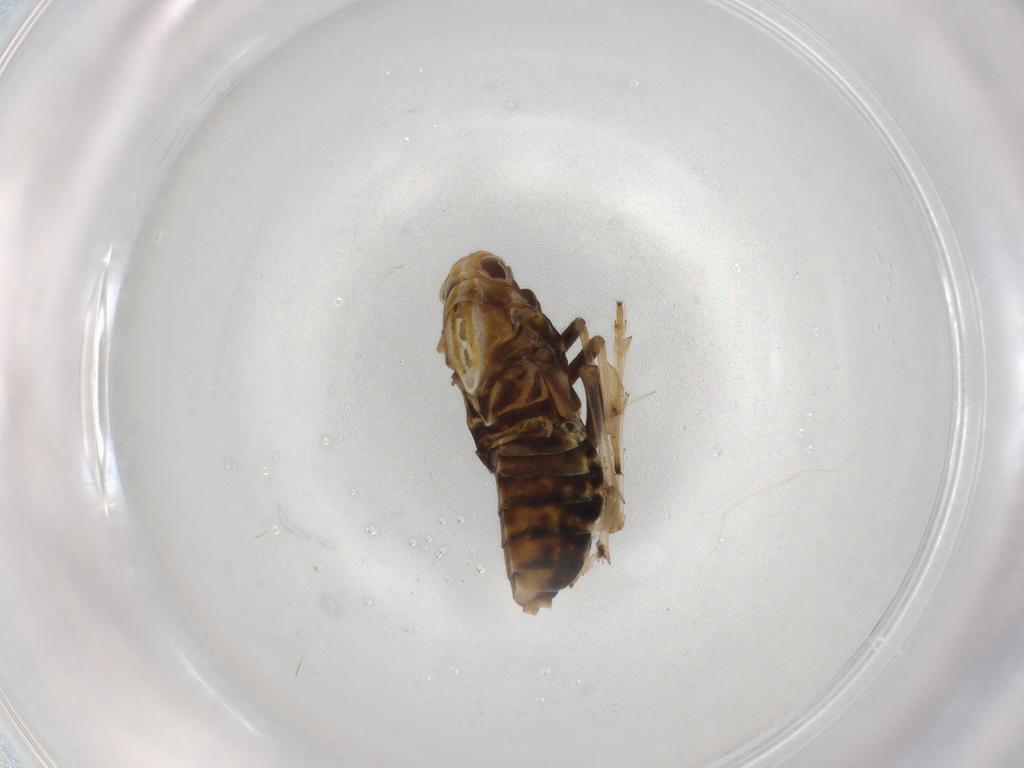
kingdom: Animalia
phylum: Arthropoda
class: Insecta
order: Hemiptera
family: Delphacidae
